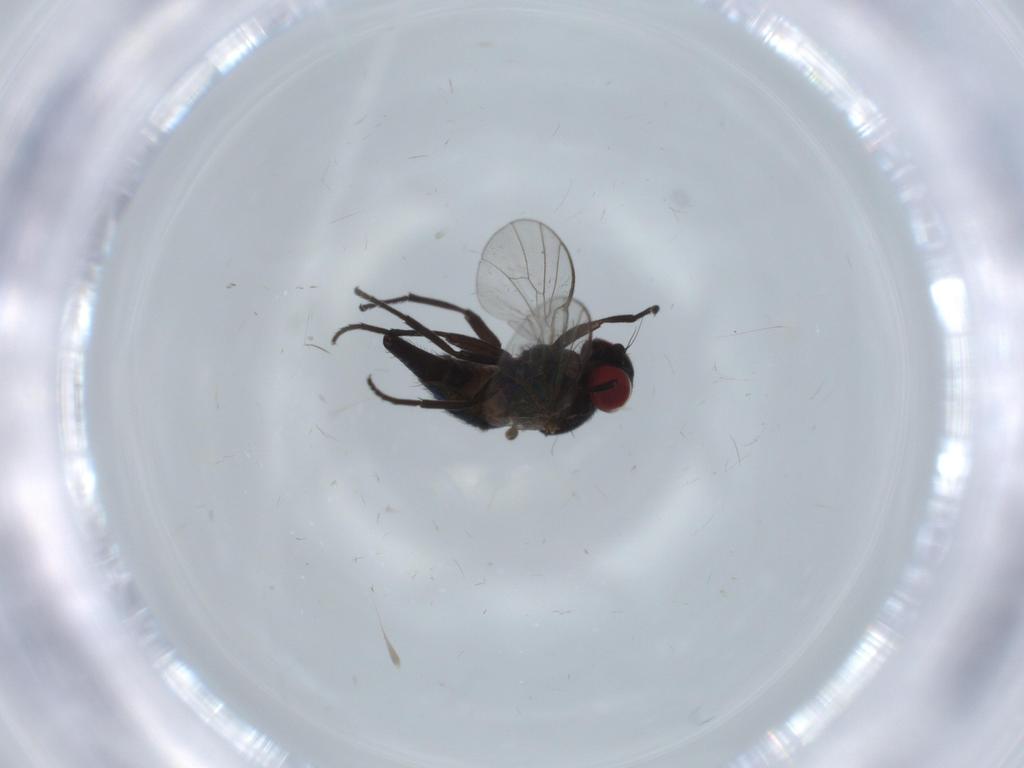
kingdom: Animalia
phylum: Arthropoda
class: Insecta
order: Diptera
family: Agromyzidae
